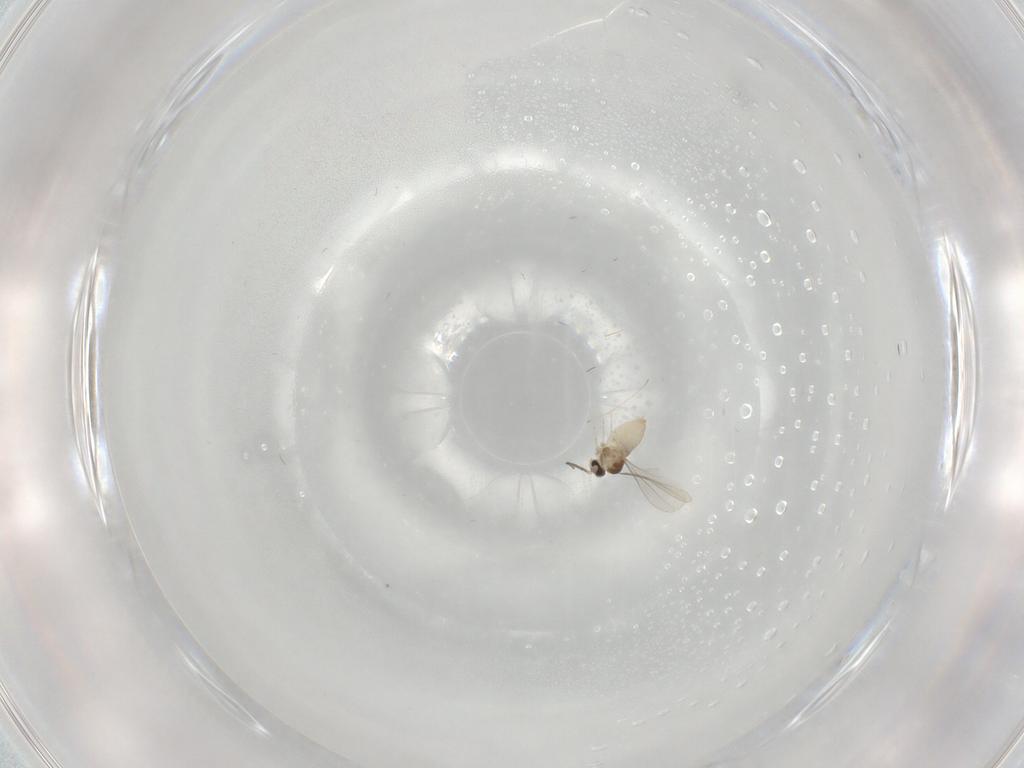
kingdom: Animalia
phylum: Arthropoda
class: Insecta
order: Diptera
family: Cecidomyiidae
